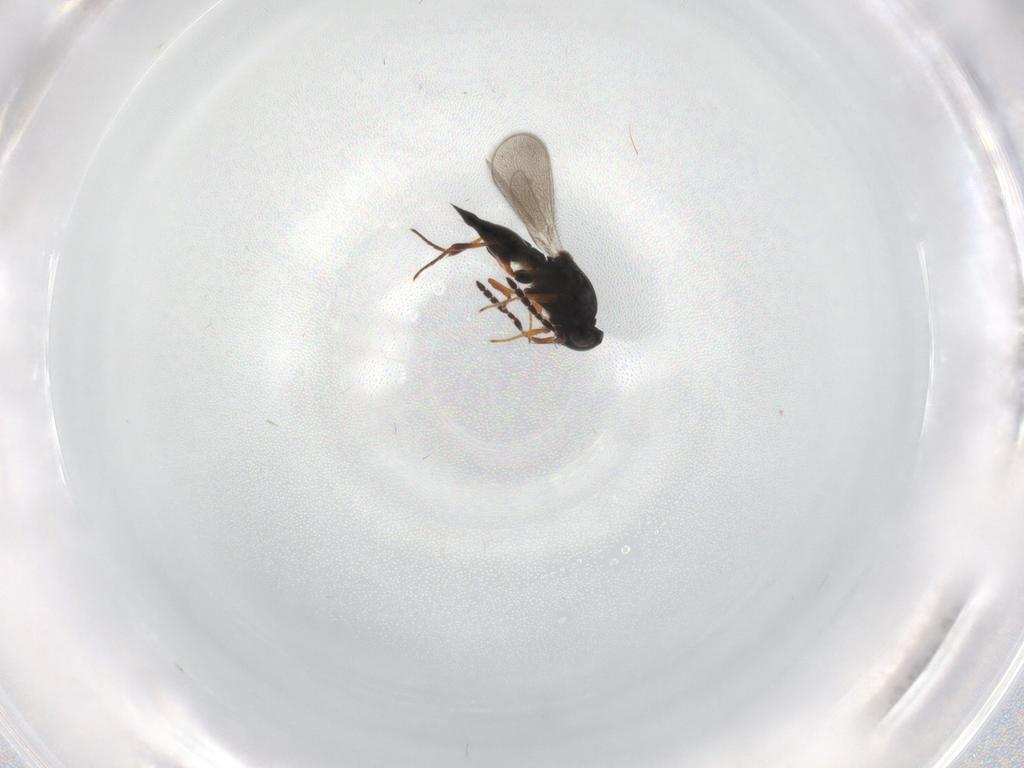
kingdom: Animalia
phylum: Arthropoda
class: Insecta
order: Hymenoptera
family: Platygastridae
